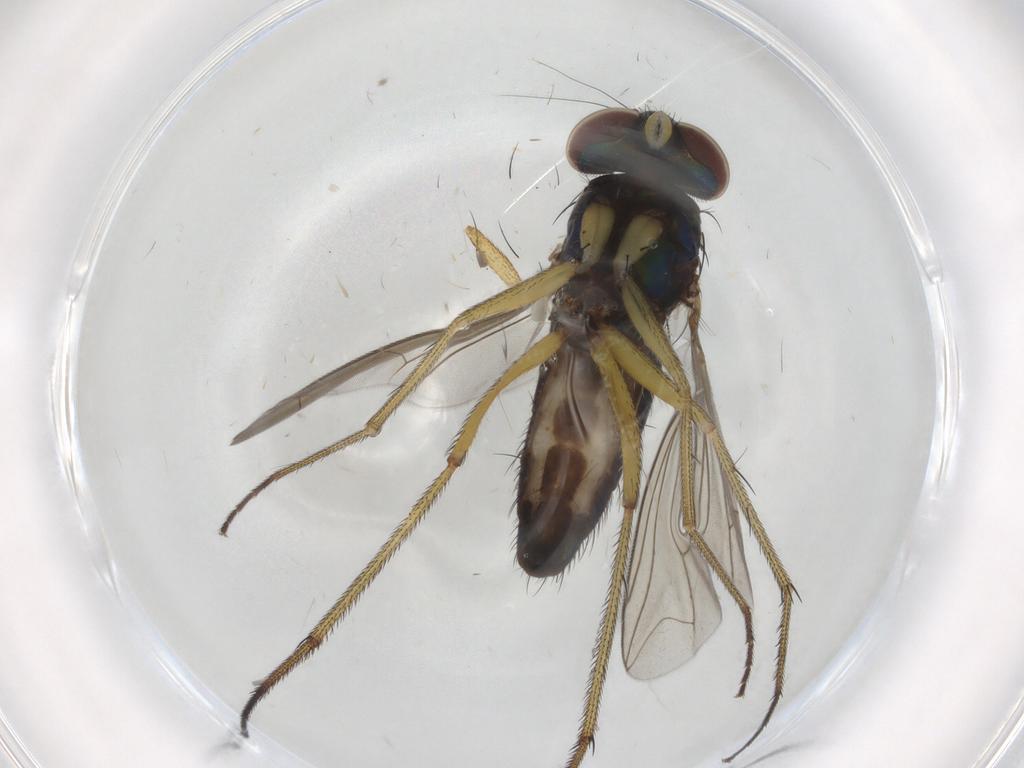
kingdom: Animalia
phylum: Arthropoda
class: Insecta
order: Diptera
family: Dolichopodidae
